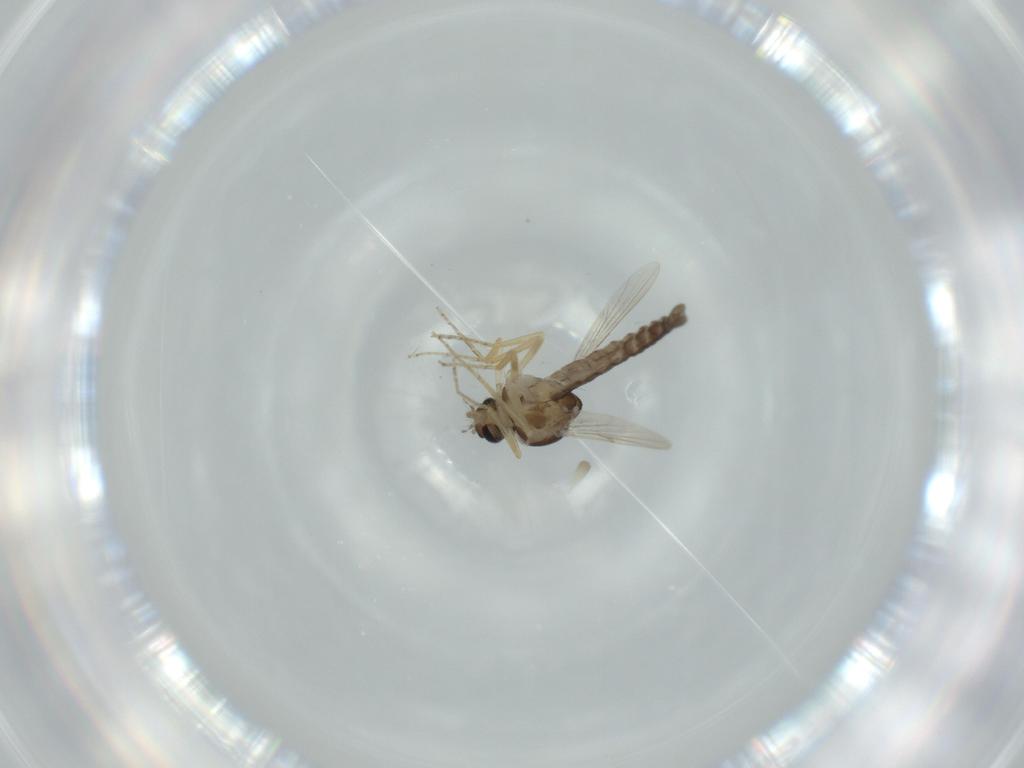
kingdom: Animalia
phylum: Arthropoda
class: Insecta
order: Diptera
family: Ceratopogonidae
